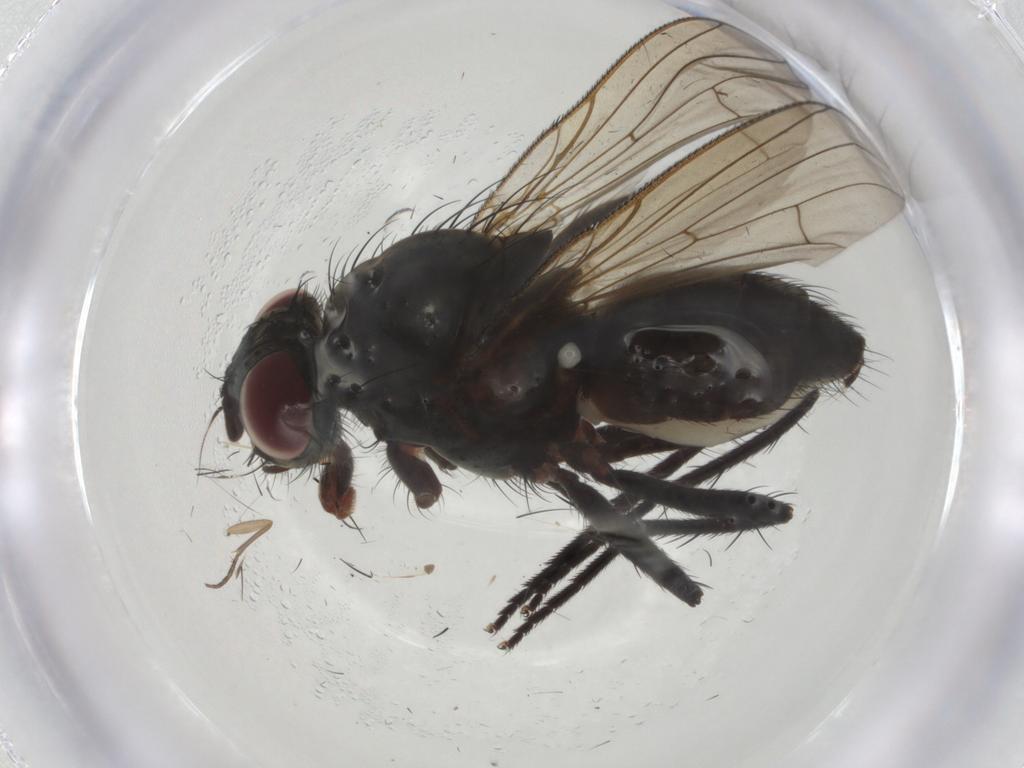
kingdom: Animalia
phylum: Arthropoda
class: Insecta
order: Diptera
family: Anthomyiidae
